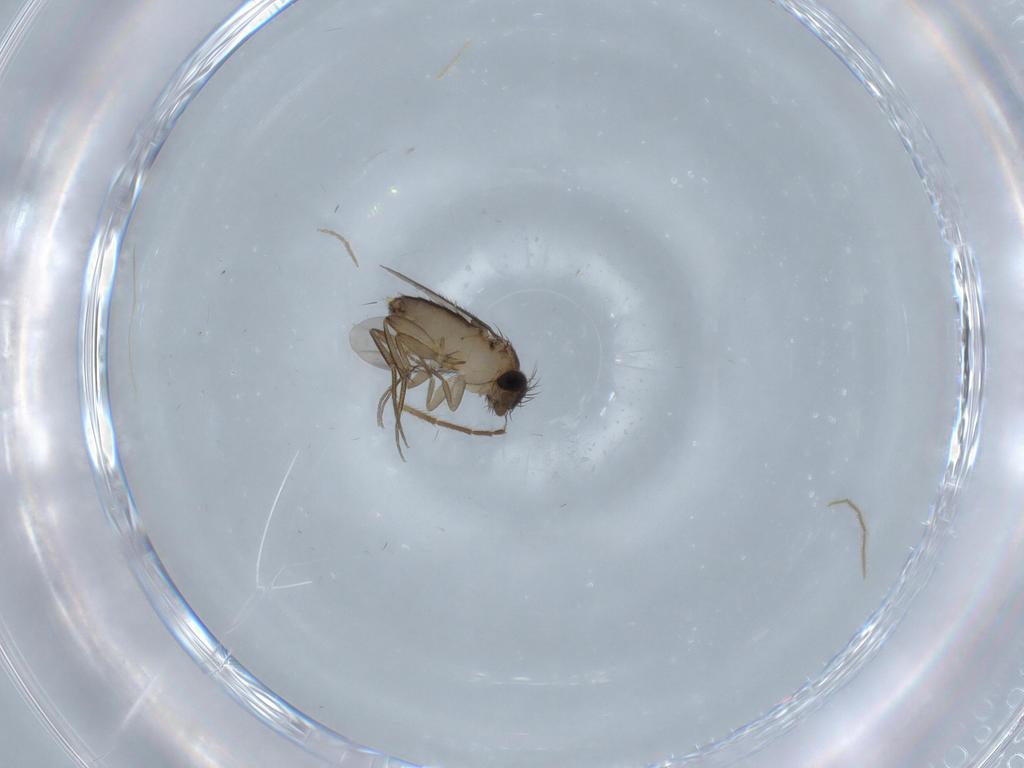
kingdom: Animalia
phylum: Arthropoda
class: Insecta
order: Diptera
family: Cecidomyiidae
